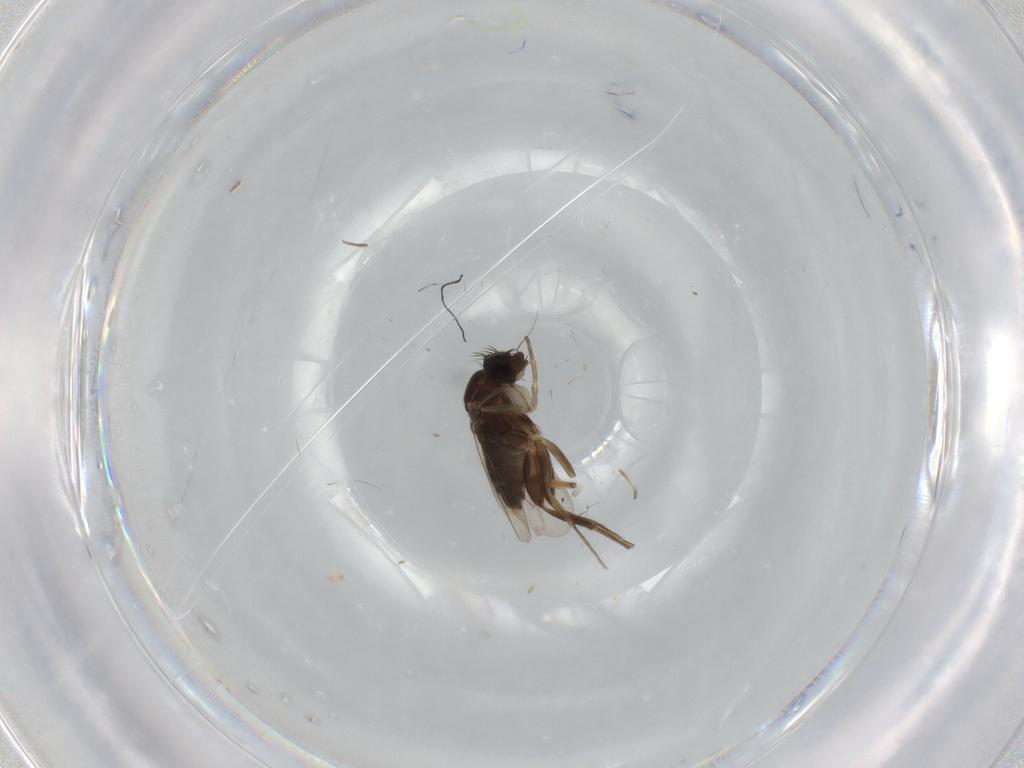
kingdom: Animalia
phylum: Arthropoda
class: Insecta
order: Diptera
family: Phoridae
